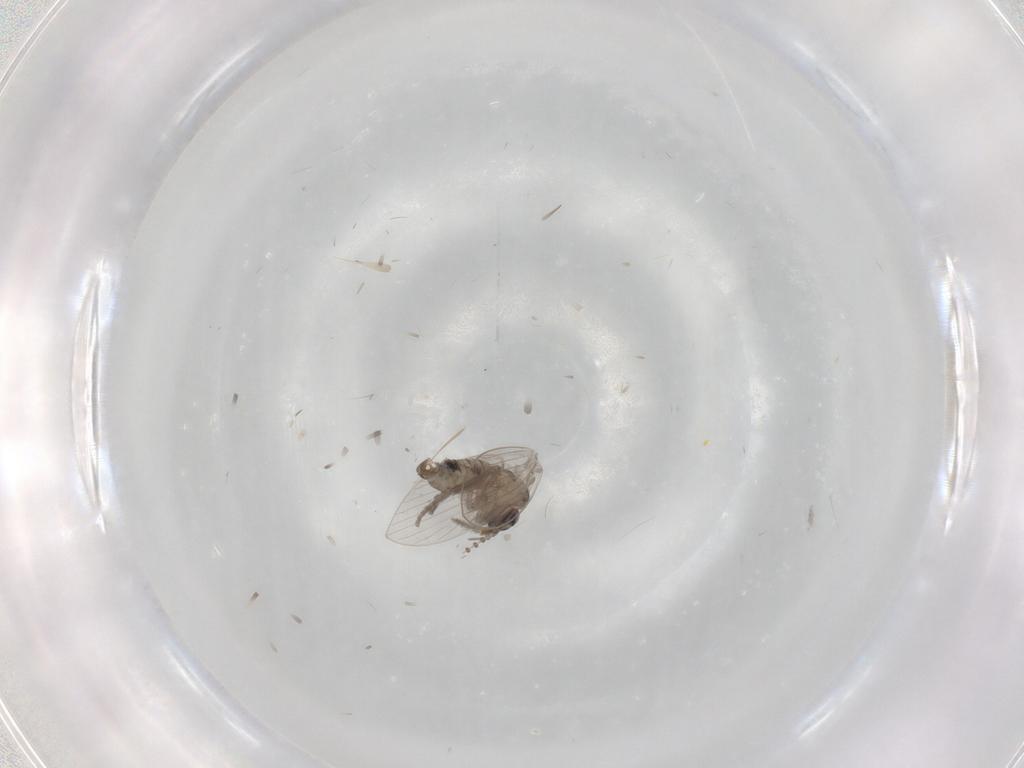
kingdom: Animalia
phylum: Arthropoda
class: Insecta
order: Diptera
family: Psychodidae
